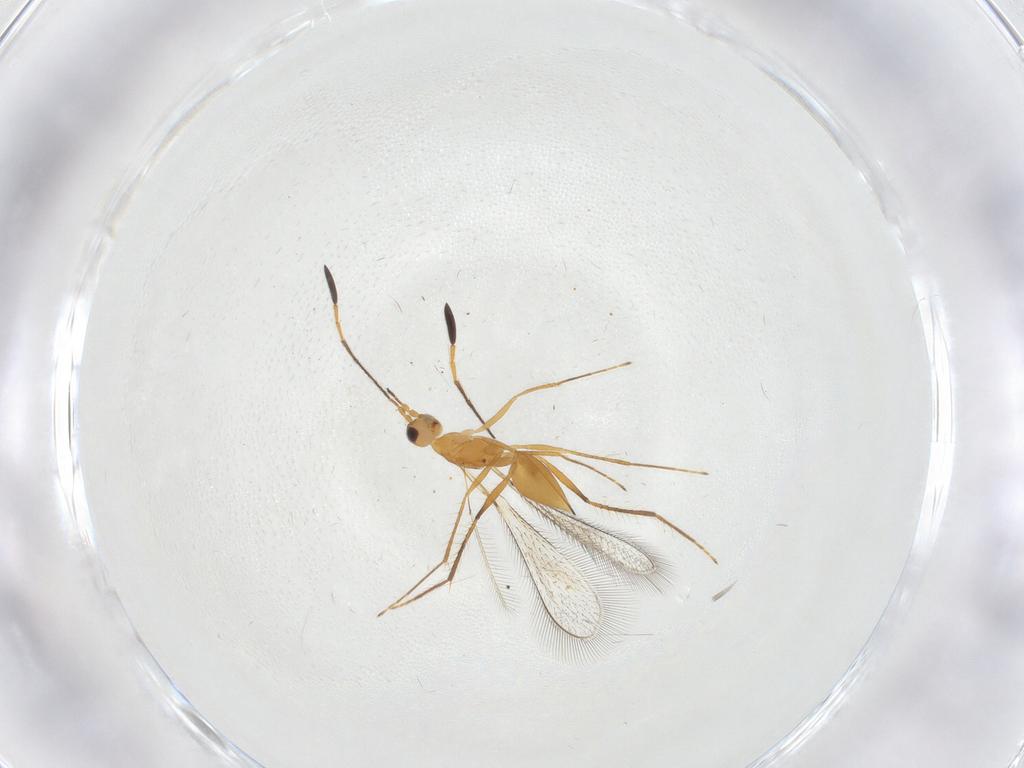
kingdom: Animalia
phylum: Arthropoda
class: Insecta
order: Hymenoptera
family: Mymaridae
